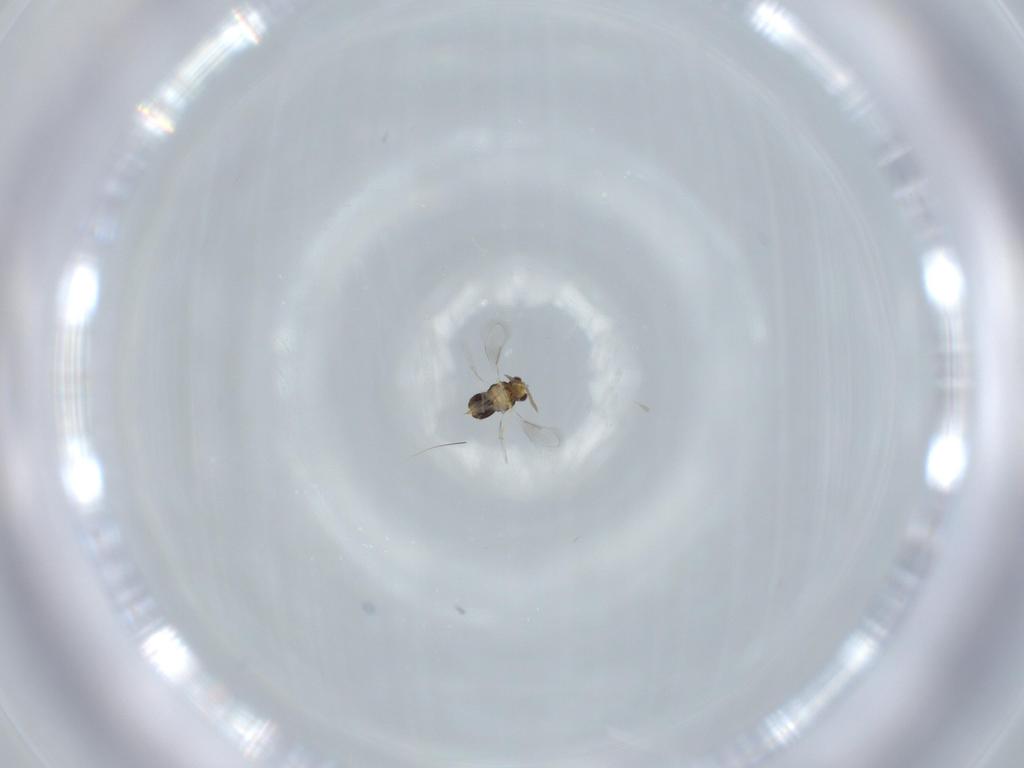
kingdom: Animalia
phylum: Arthropoda
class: Insecta
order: Hymenoptera
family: Aphelinidae
